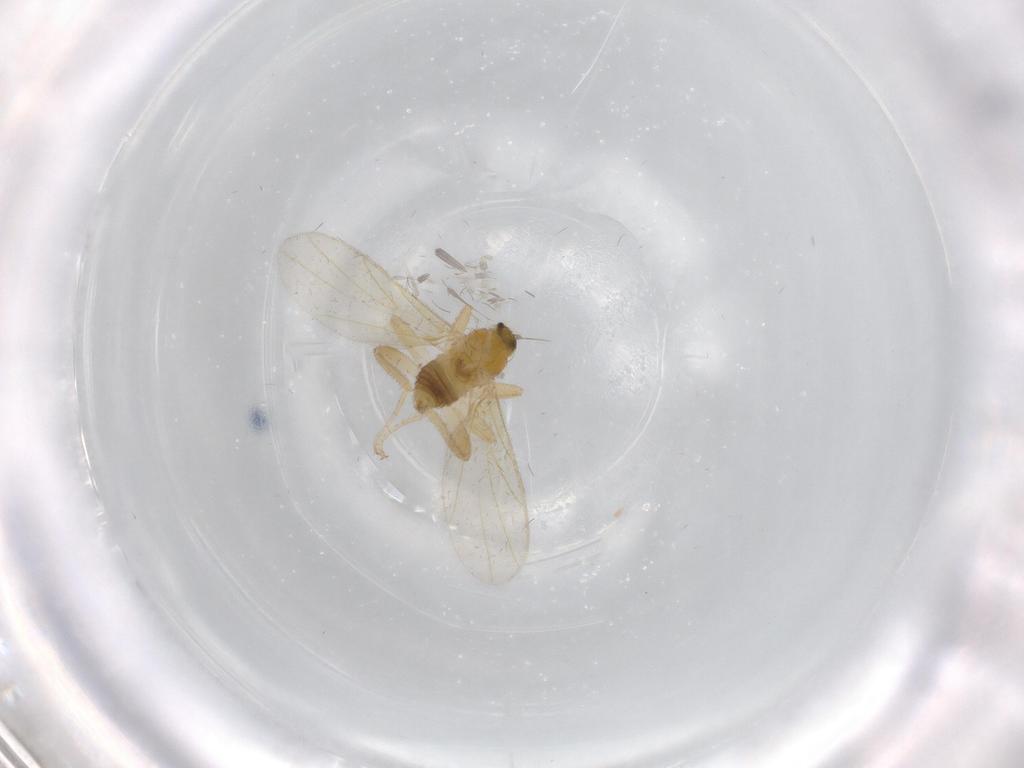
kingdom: Animalia
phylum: Arthropoda
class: Insecta
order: Diptera
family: Hybotidae
